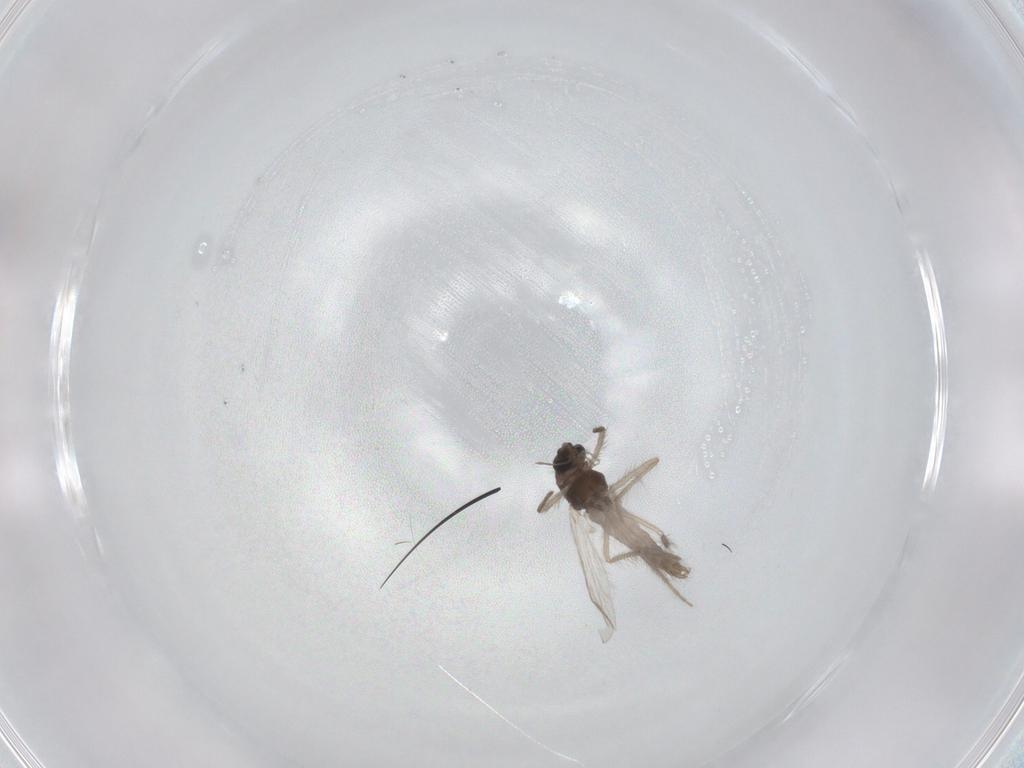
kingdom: Animalia
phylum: Arthropoda
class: Insecta
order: Diptera
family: Chironomidae
